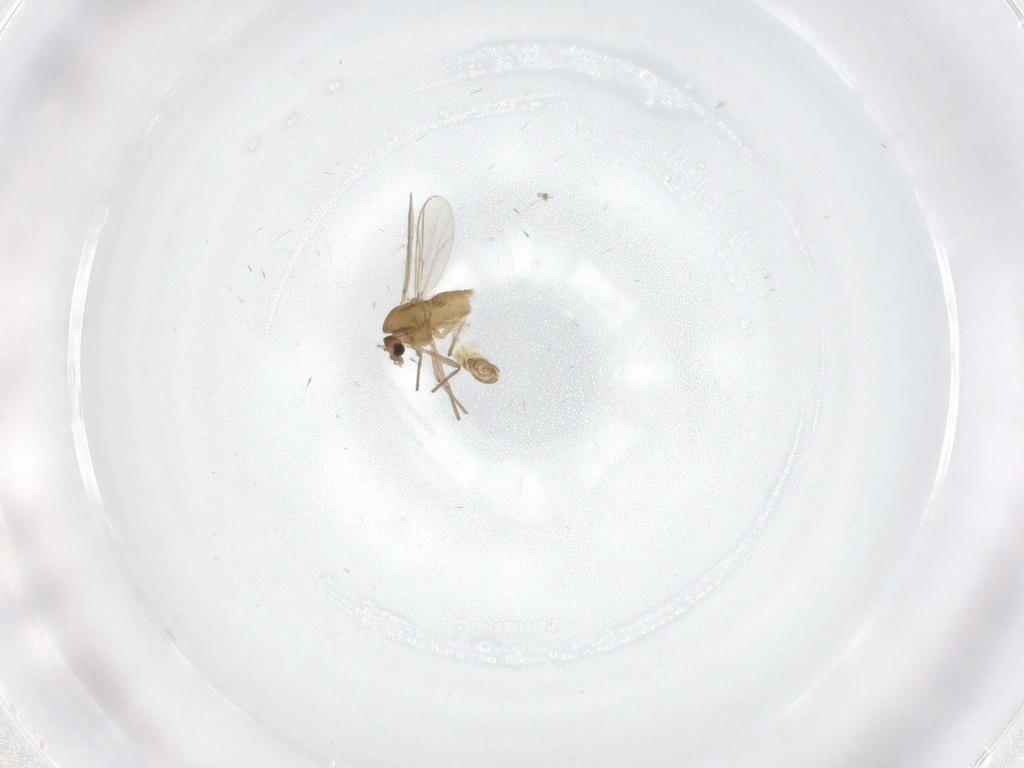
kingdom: Animalia
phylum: Arthropoda
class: Insecta
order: Diptera
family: Chironomidae
